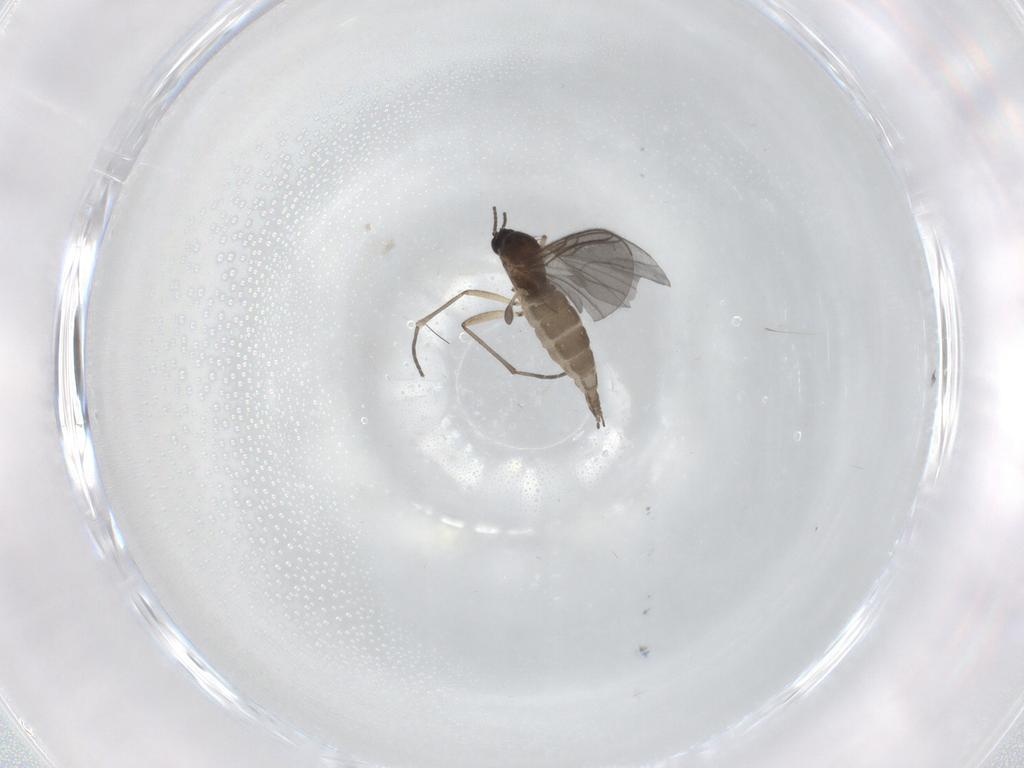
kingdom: Animalia
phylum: Arthropoda
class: Insecta
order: Diptera
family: Sciaridae
